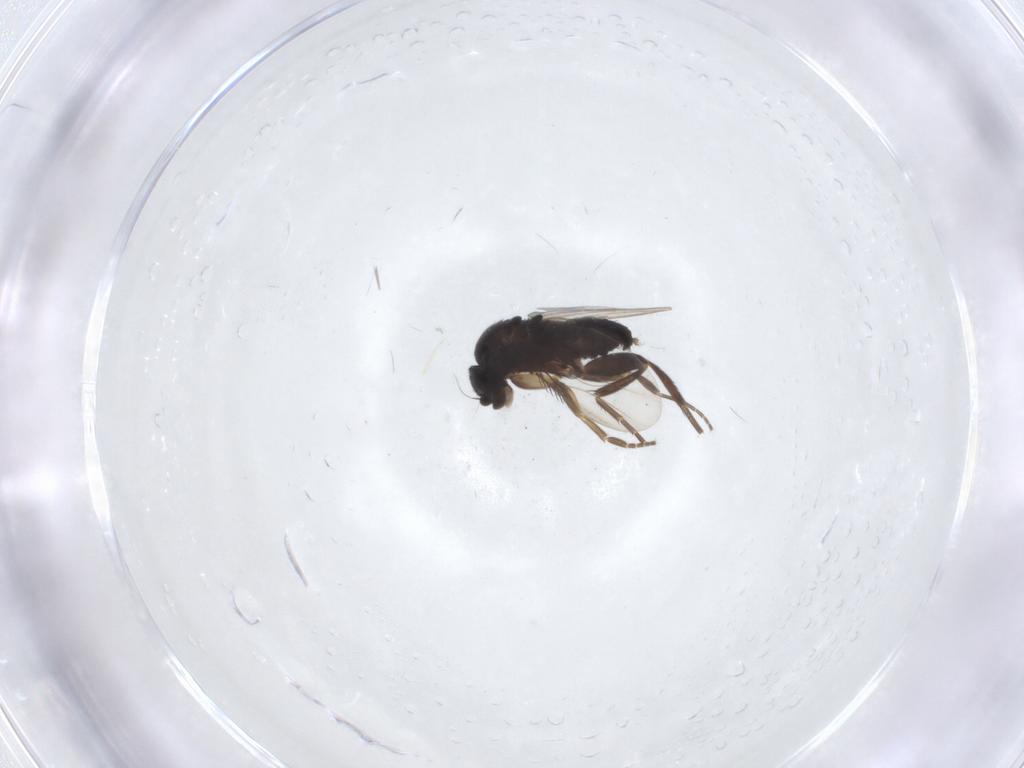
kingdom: Animalia
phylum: Arthropoda
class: Insecta
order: Diptera
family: Phoridae
